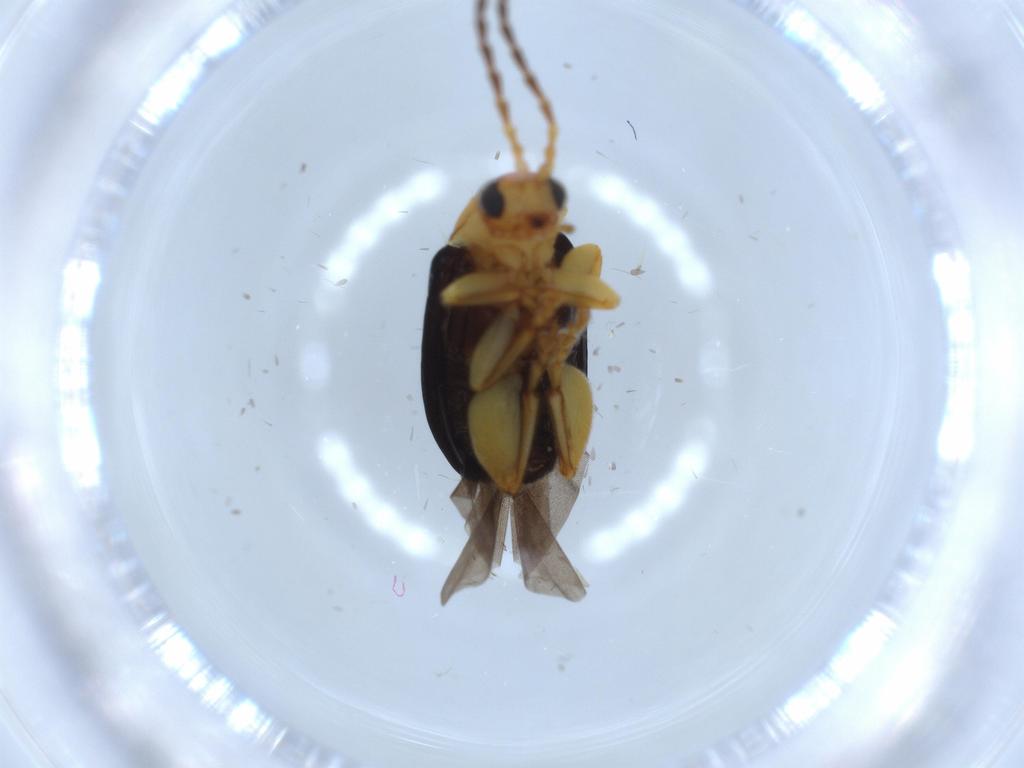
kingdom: Animalia
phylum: Arthropoda
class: Insecta
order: Coleoptera
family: Chrysomelidae
